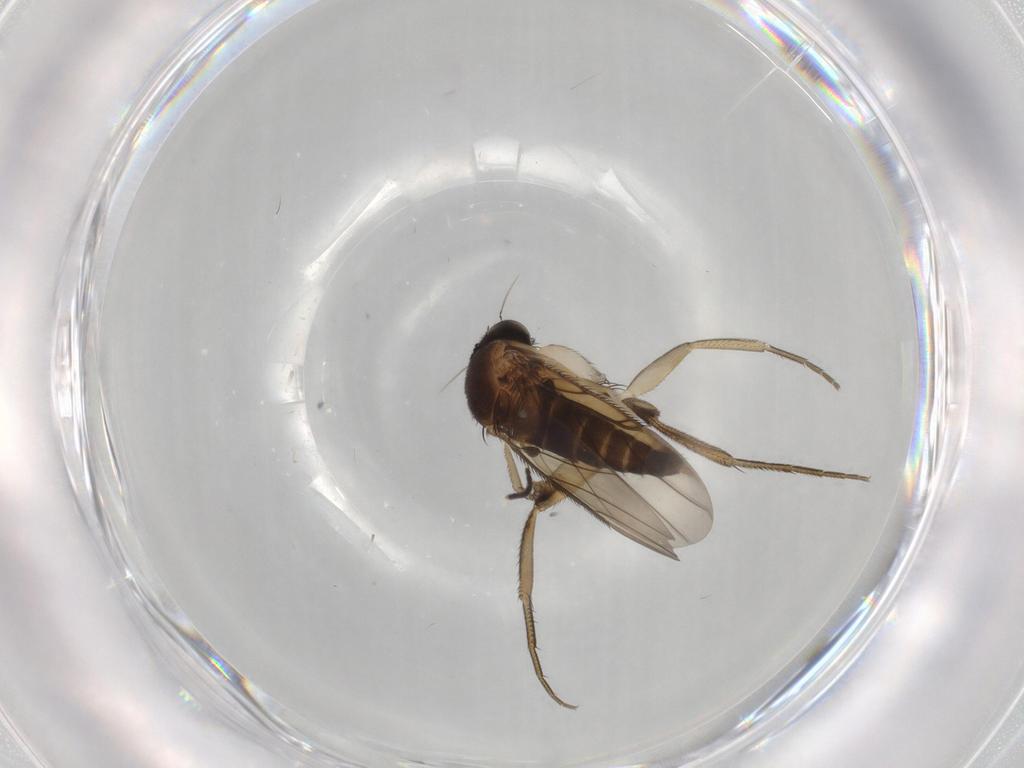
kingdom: Animalia
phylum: Arthropoda
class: Insecta
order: Diptera
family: Phoridae
